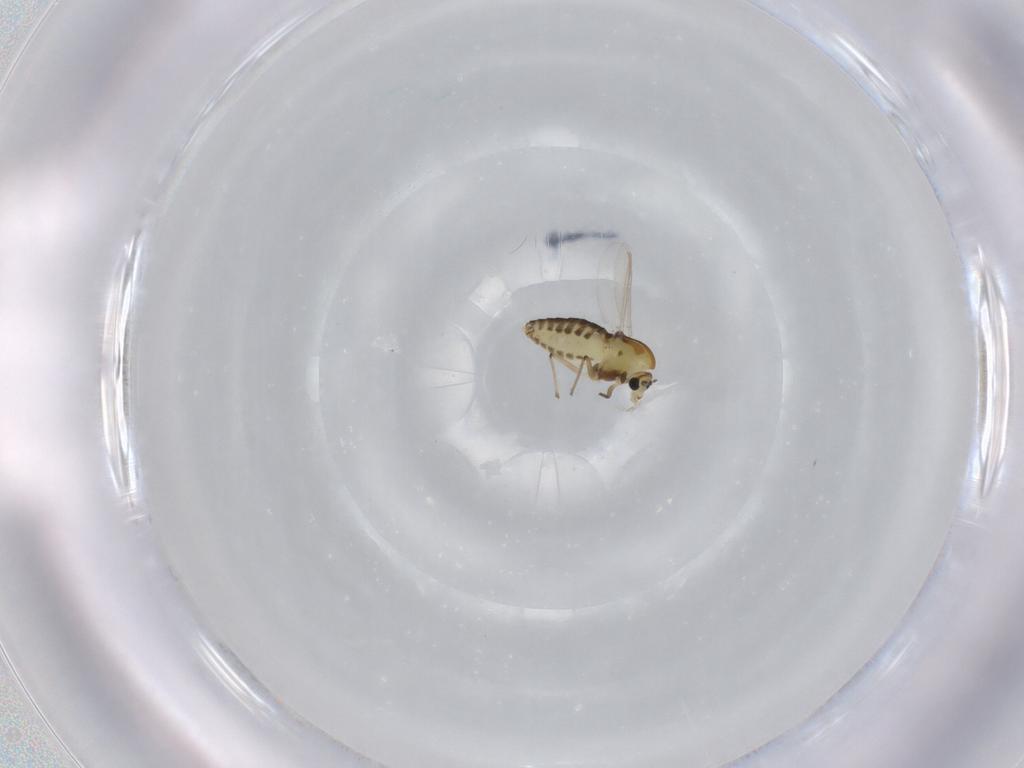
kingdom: Animalia
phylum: Arthropoda
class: Insecta
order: Diptera
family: Chironomidae
